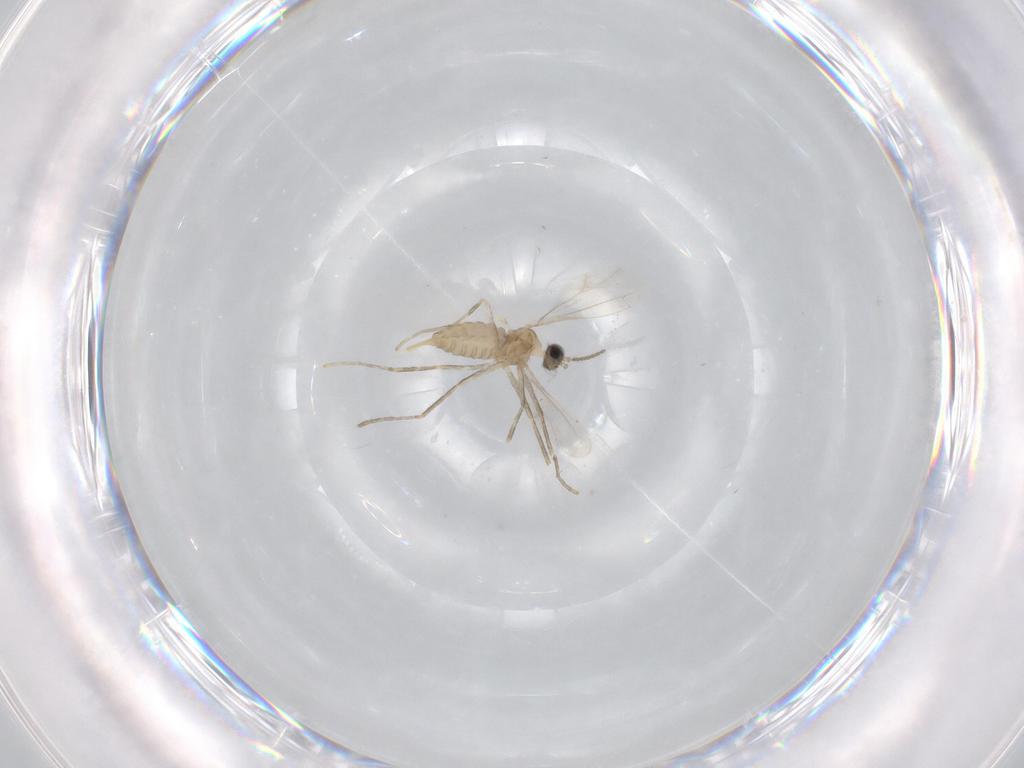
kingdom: Animalia
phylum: Arthropoda
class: Insecta
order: Diptera
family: Cecidomyiidae
